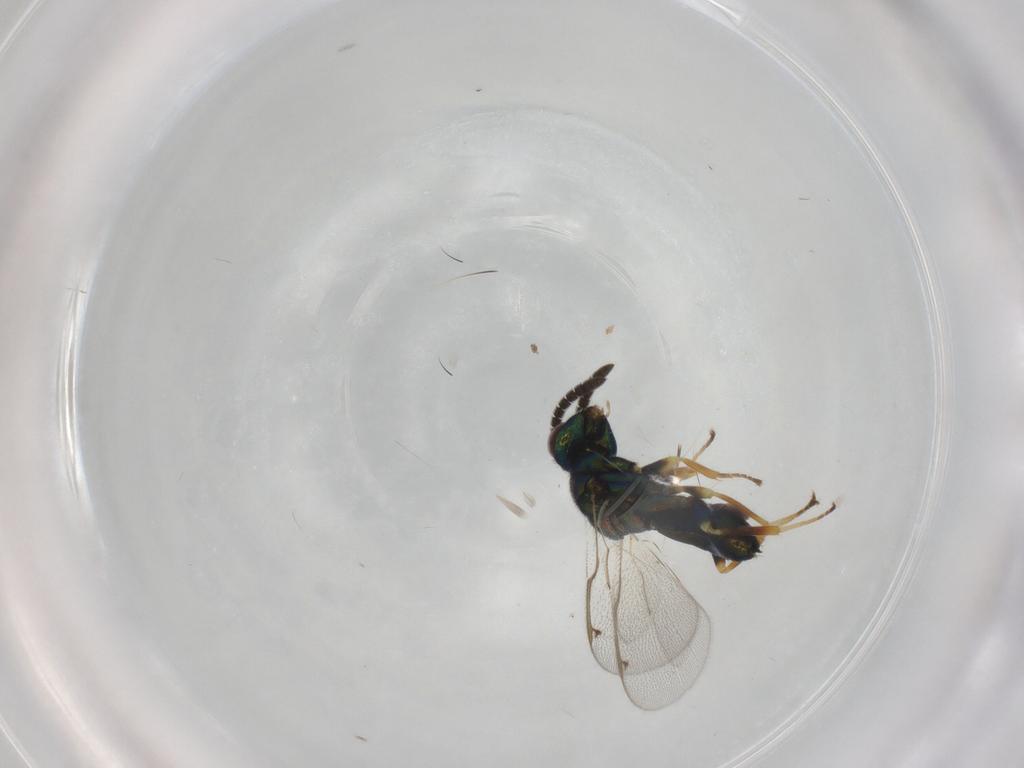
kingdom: Animalia
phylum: Arthropoda
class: Insecta
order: Hymenoptera
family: Torymidae
